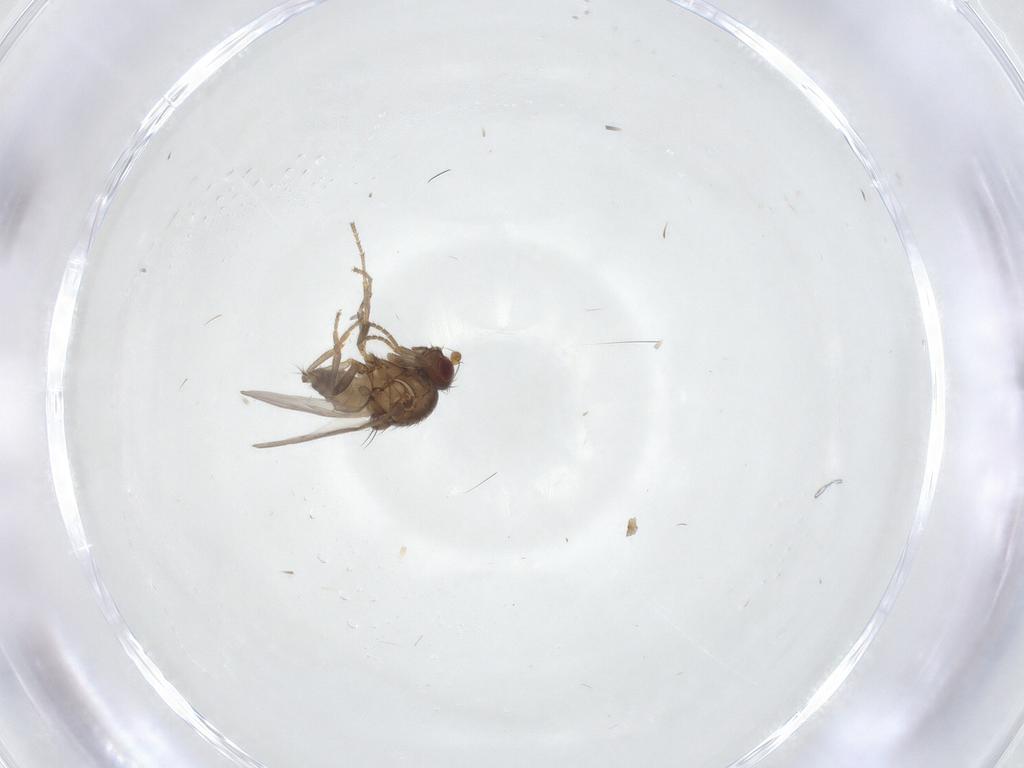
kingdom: Animalia
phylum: Arthropoda
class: Insecta
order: Diptera
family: Sphaeroceridae
